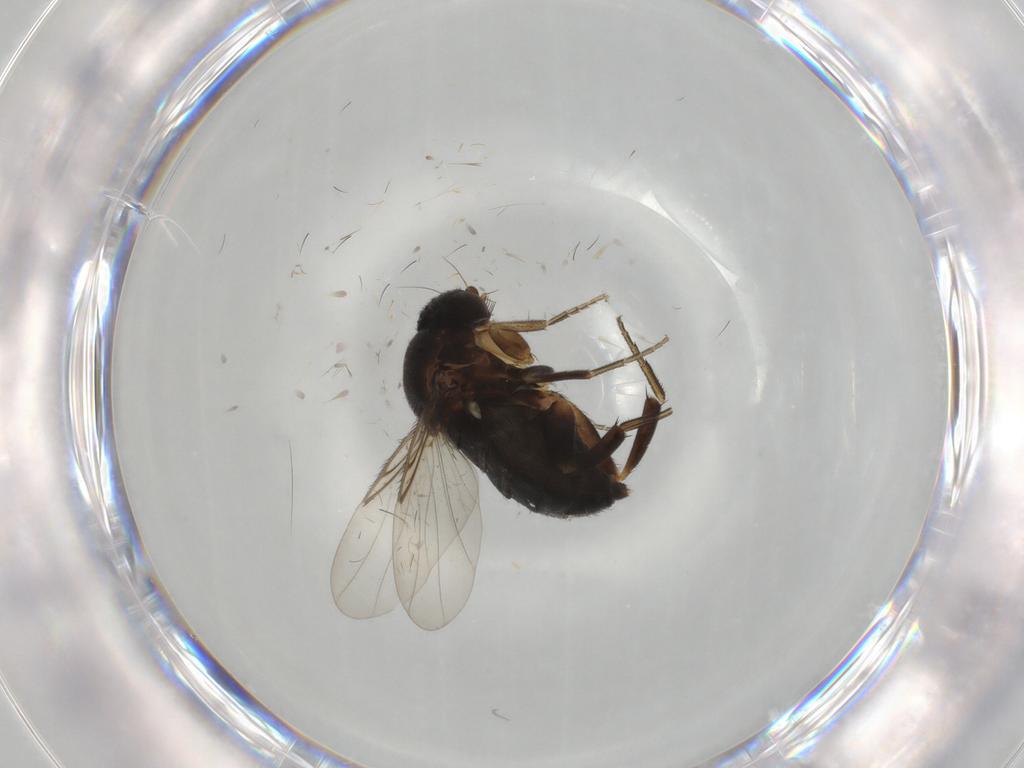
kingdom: Animalia
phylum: Arthropoda
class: Insecta
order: Diptera
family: Phoridae
